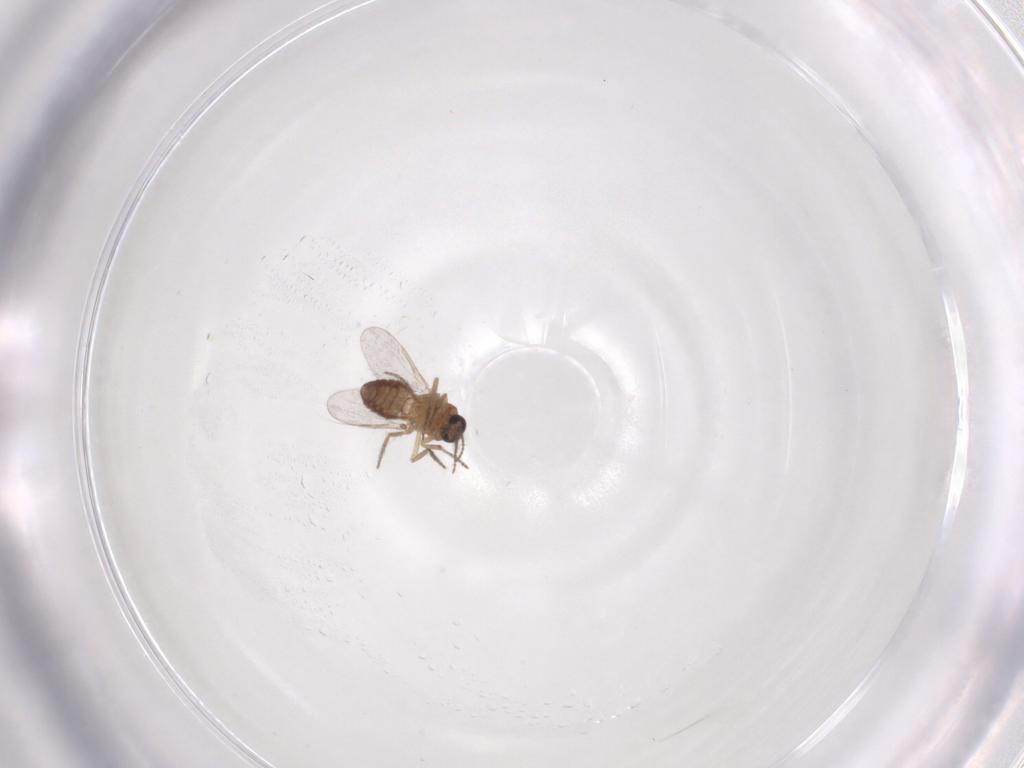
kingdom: Animalia
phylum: Arthropoda
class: Insecta
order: Diptera
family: Ceratopogonidae
